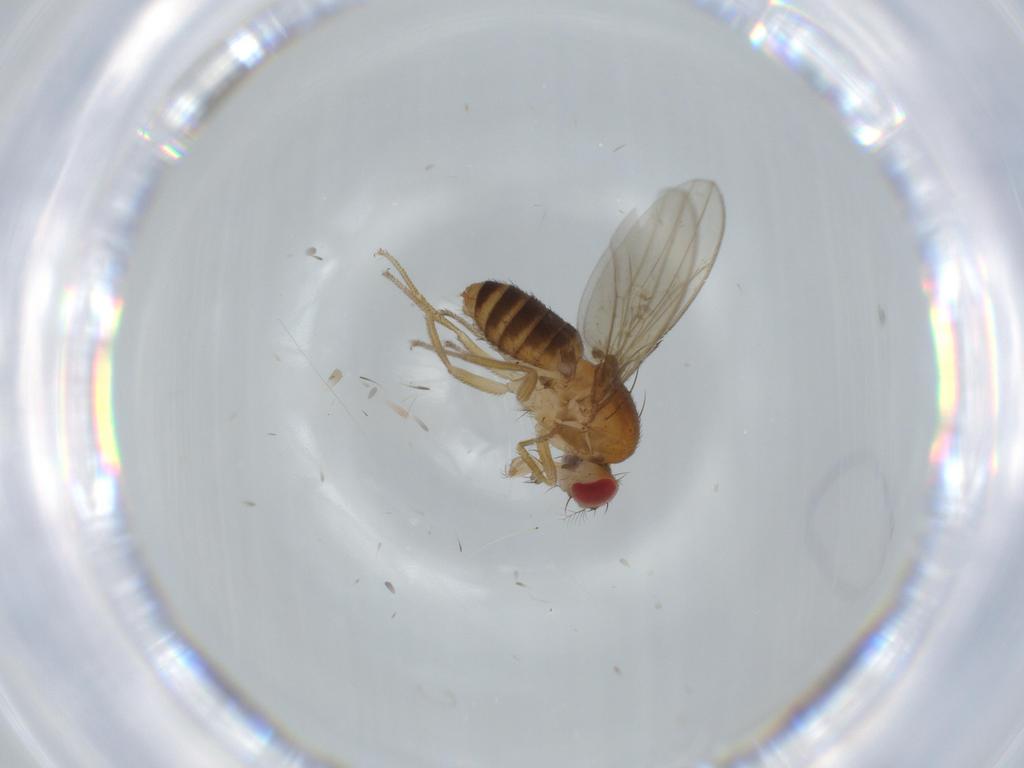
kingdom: Animalia
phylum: Arthropoda
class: Insecta
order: Diptera
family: Drosophilidae
